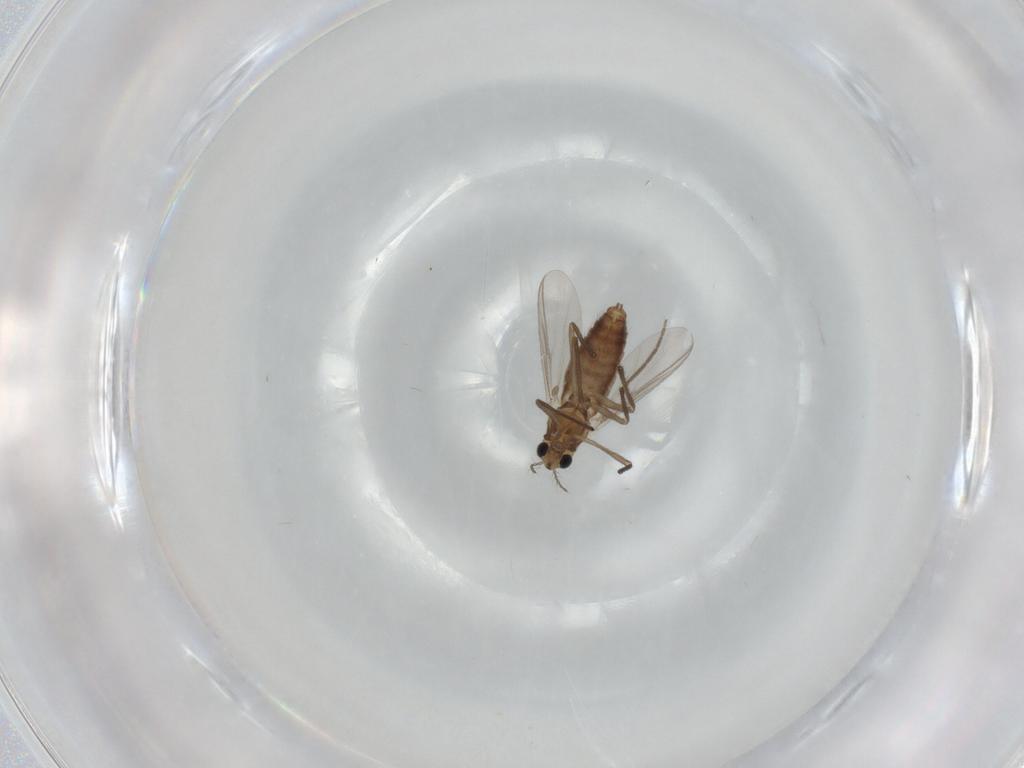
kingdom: Animalia
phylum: Arthropoda
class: Insecta
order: Diptera
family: Chironomidae
